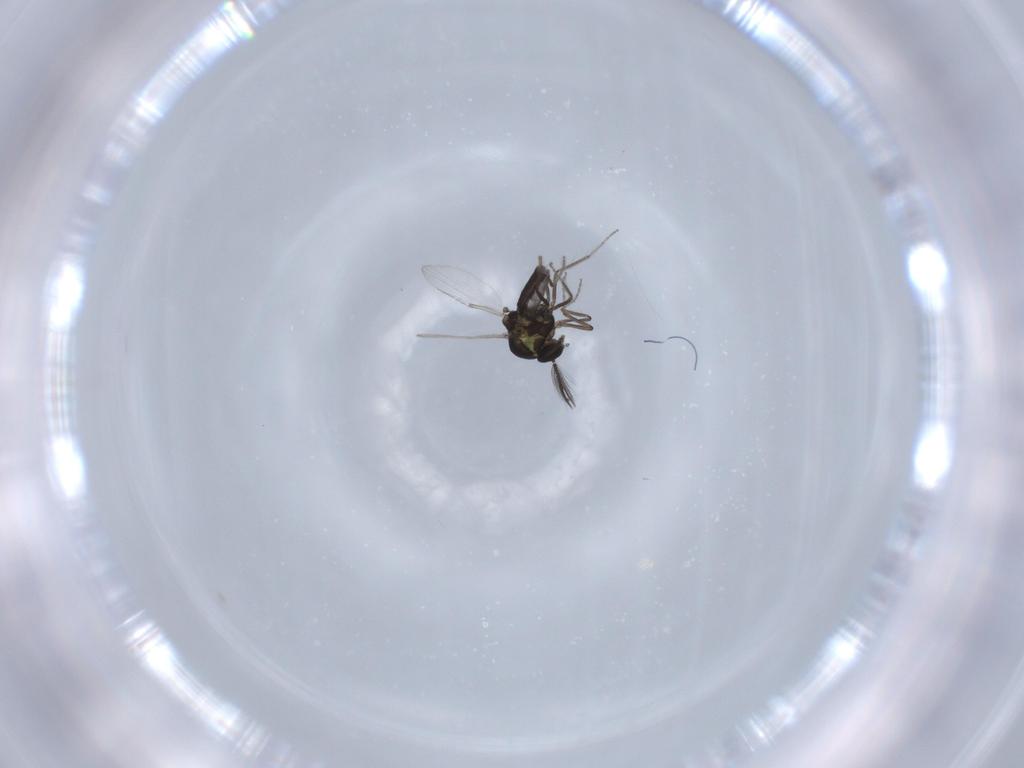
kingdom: Animalia
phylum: Arthropoda
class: Insecta
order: Diptera
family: Ceratopogonidae
